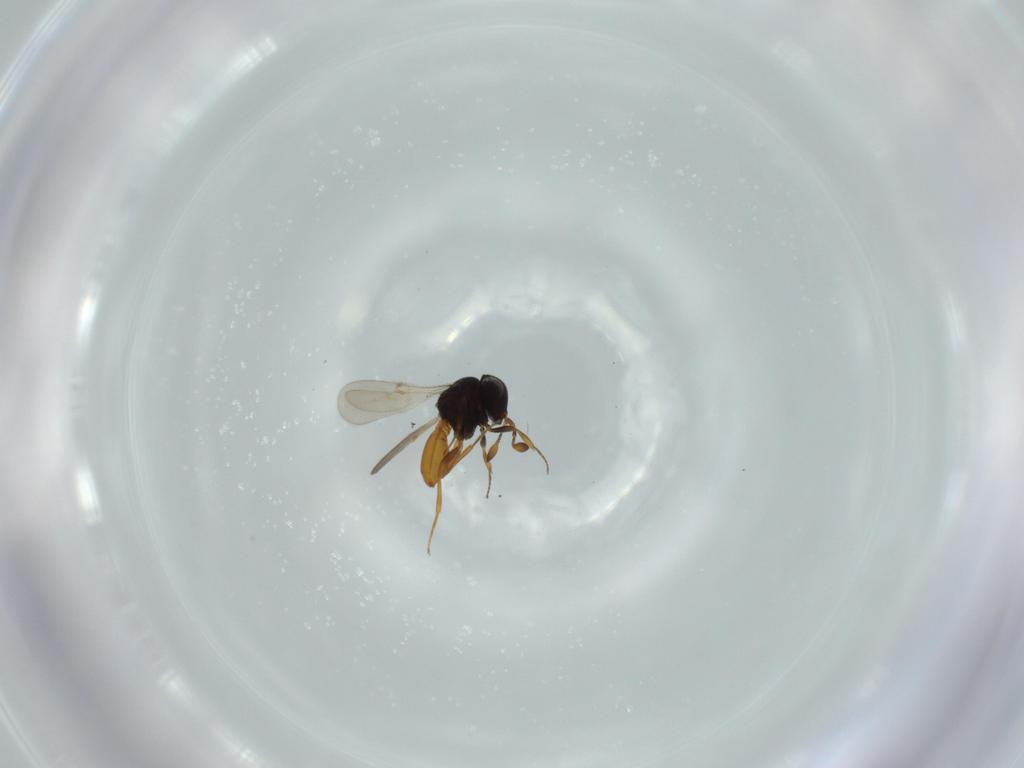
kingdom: Animalia
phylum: Arthropoda
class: Insecta
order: Hymenoptera
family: Scelionidae
